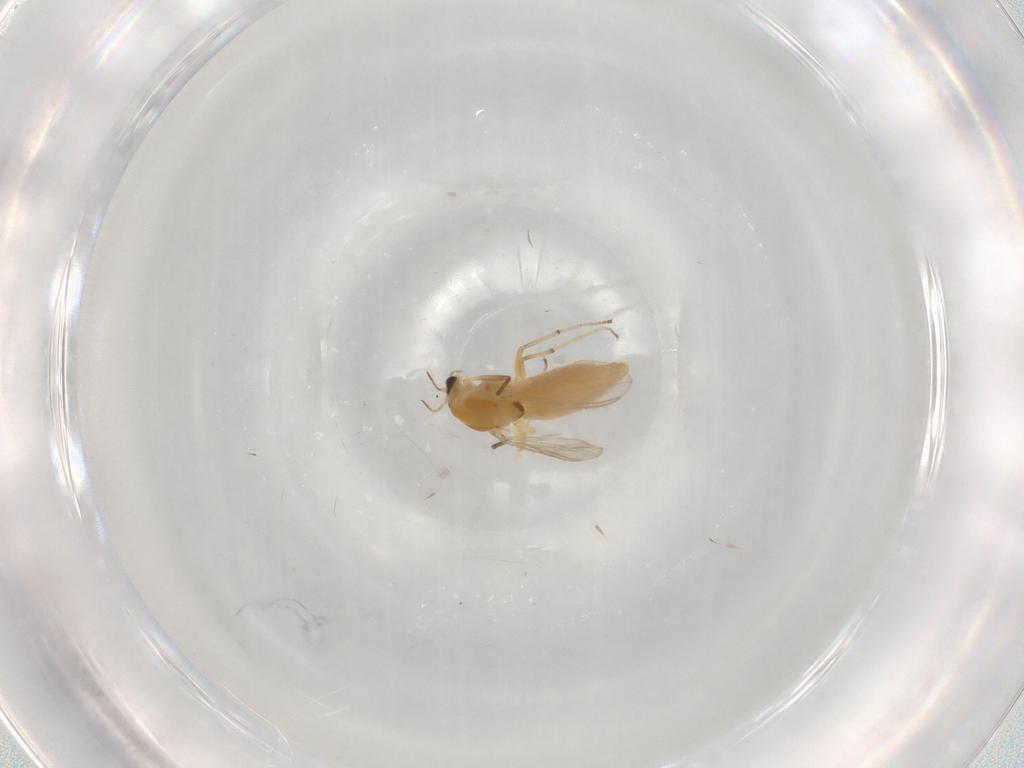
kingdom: Animalia
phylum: Arthropoda
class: Insecta
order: Diptera
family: Chironomidae
